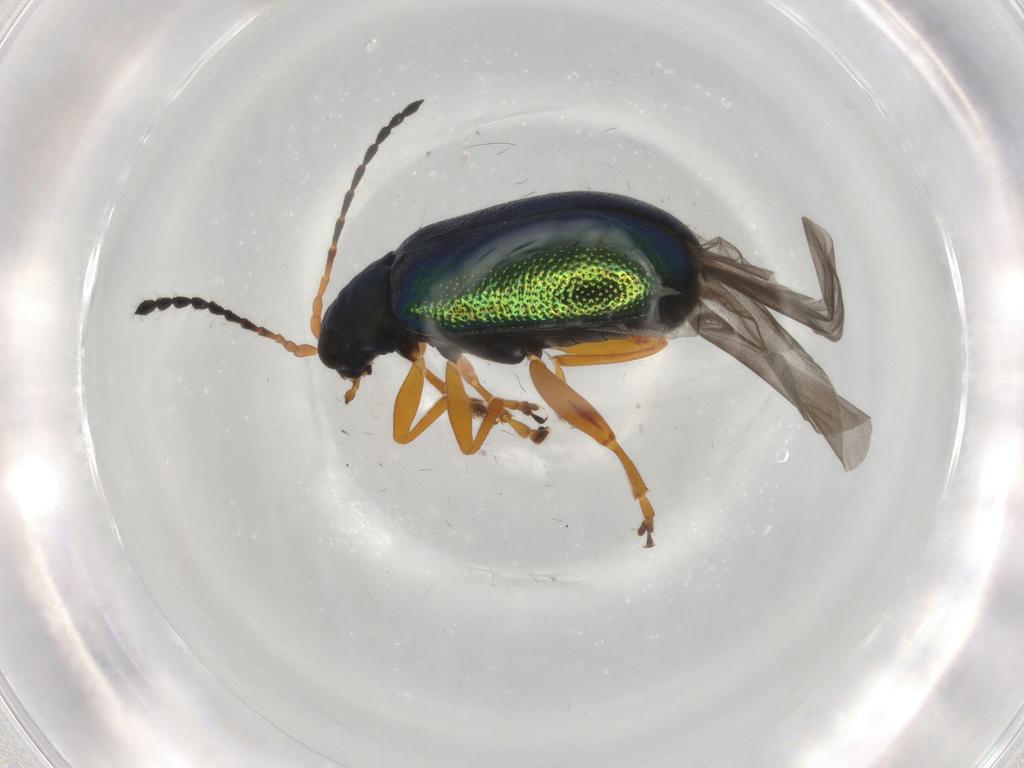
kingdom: Animalia
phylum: Arthropoda
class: Insecta
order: Coleoptera
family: Chrysomelidae
